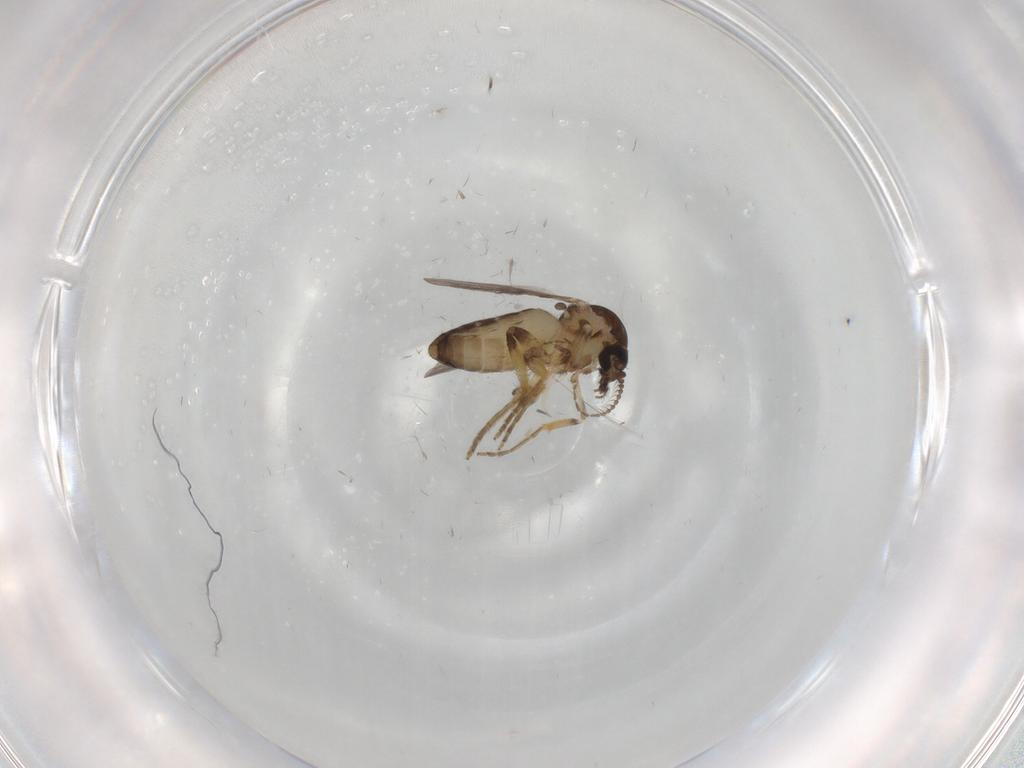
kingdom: Animalia
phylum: Arthropoda
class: Insecta
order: Diptera
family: Ceratopogonidae
